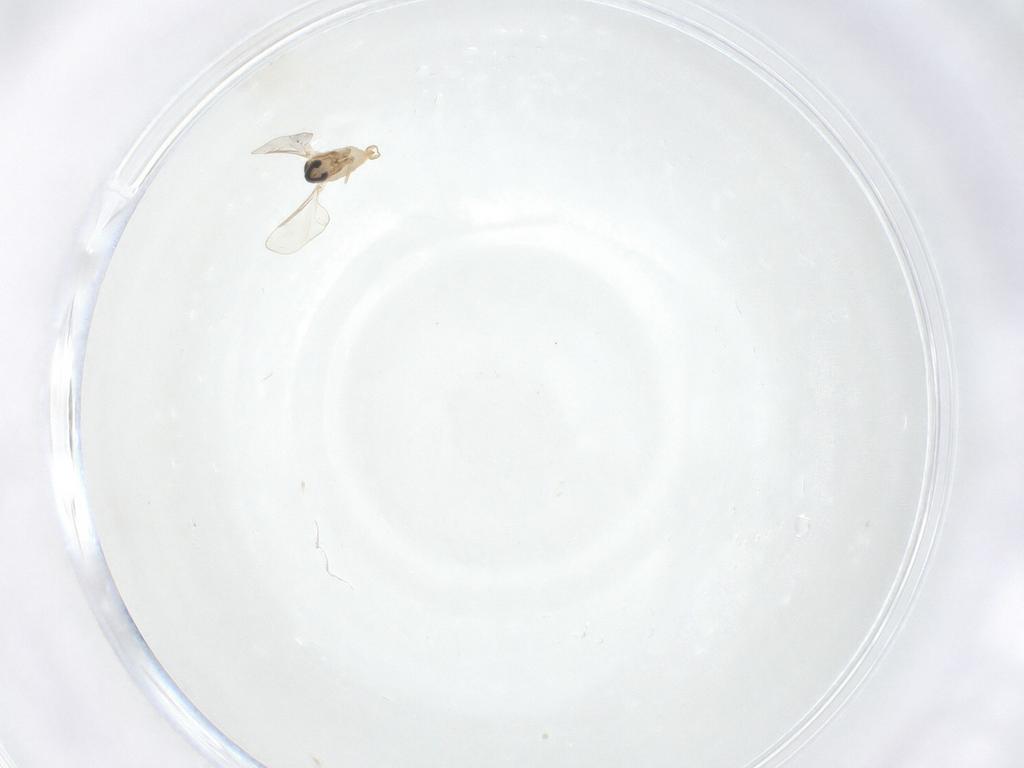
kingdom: Animalia
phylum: Arthropoda
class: Insecta
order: Diptera
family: Cecidomyiidae
